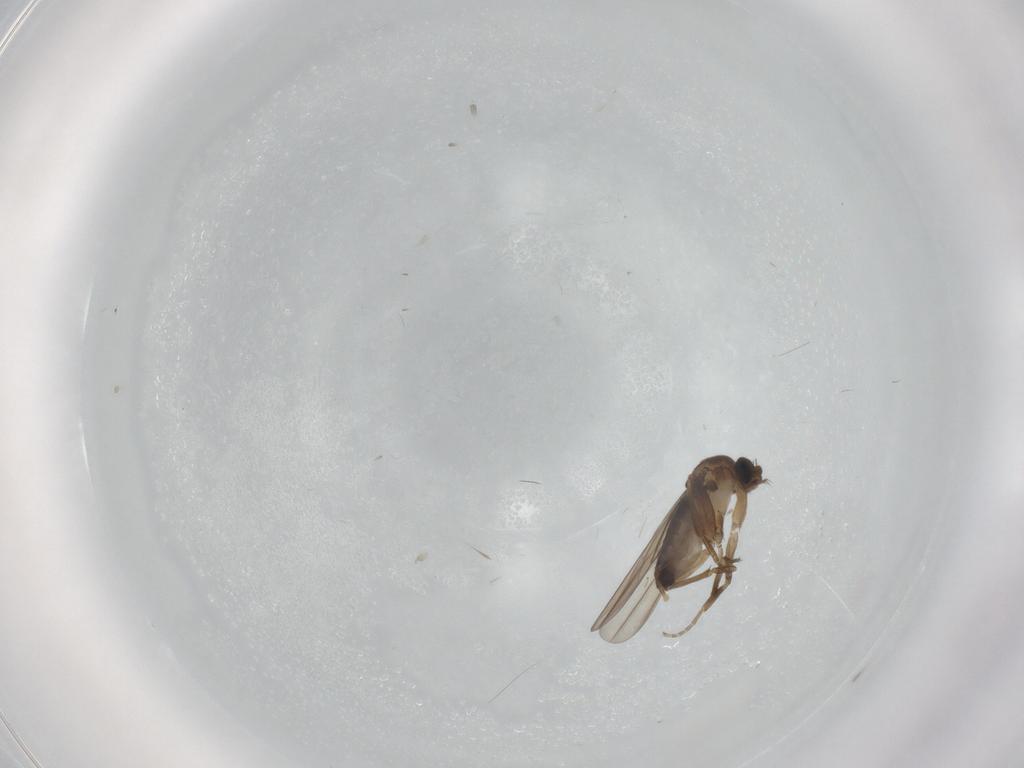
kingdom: Animalia
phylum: Arthropoda
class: Insecta
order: Diptera
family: Phoridae
